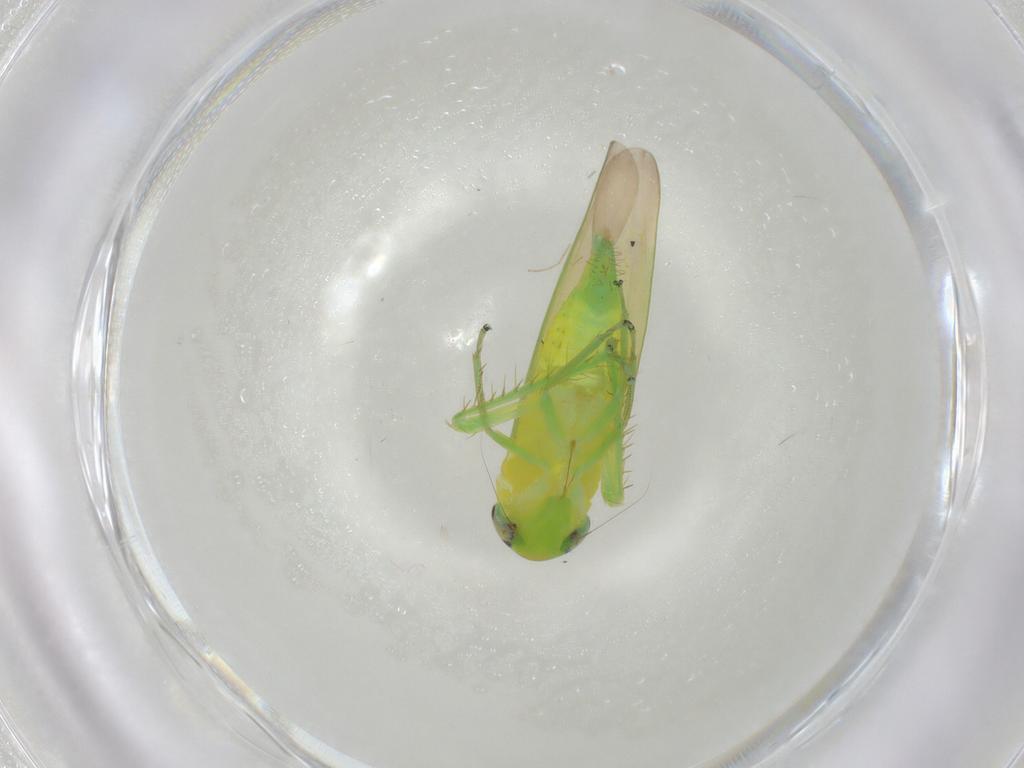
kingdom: Animalia
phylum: Arthropoda
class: Insecta
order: Hemiptera
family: Cicadellidae
